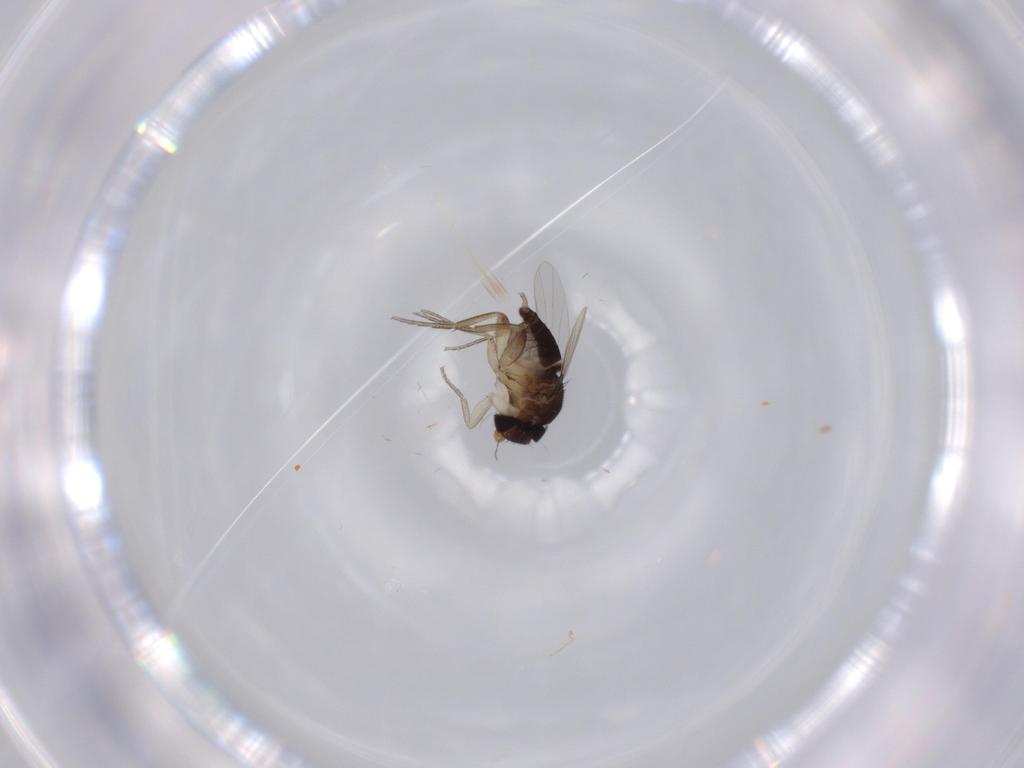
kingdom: Animalia
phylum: Arthropoda
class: Insecta
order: Diptera
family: Phoridae
